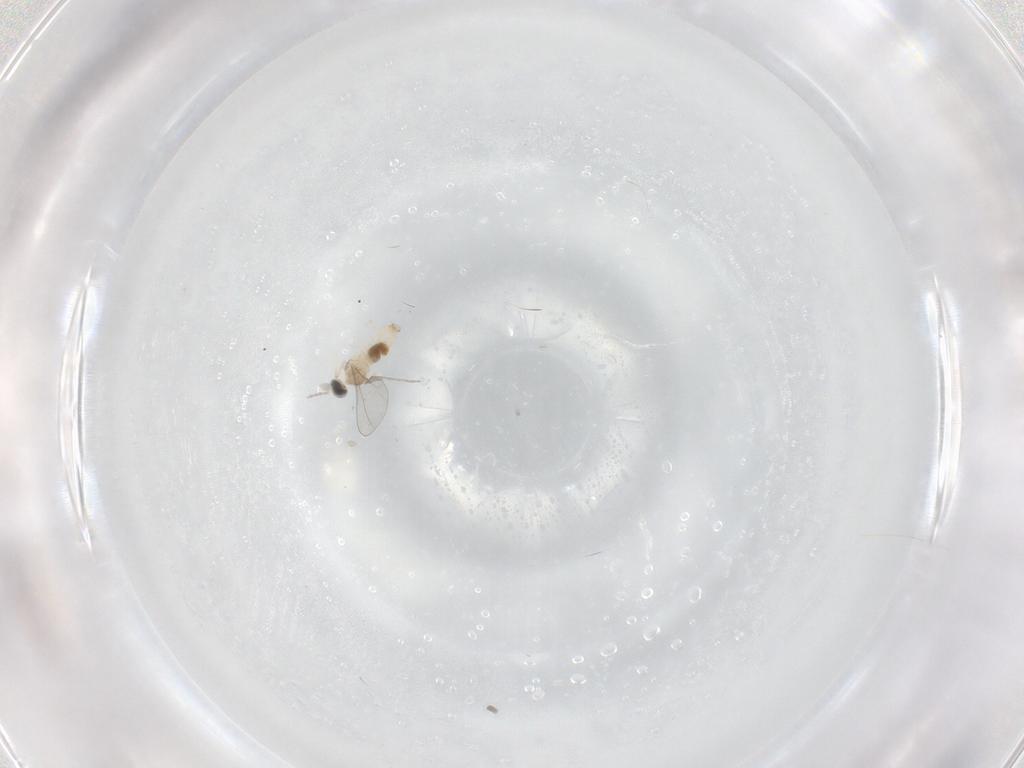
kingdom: Animalia
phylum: Arthropoda
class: Insecta
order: Diptera
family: Cecidomyiidae
